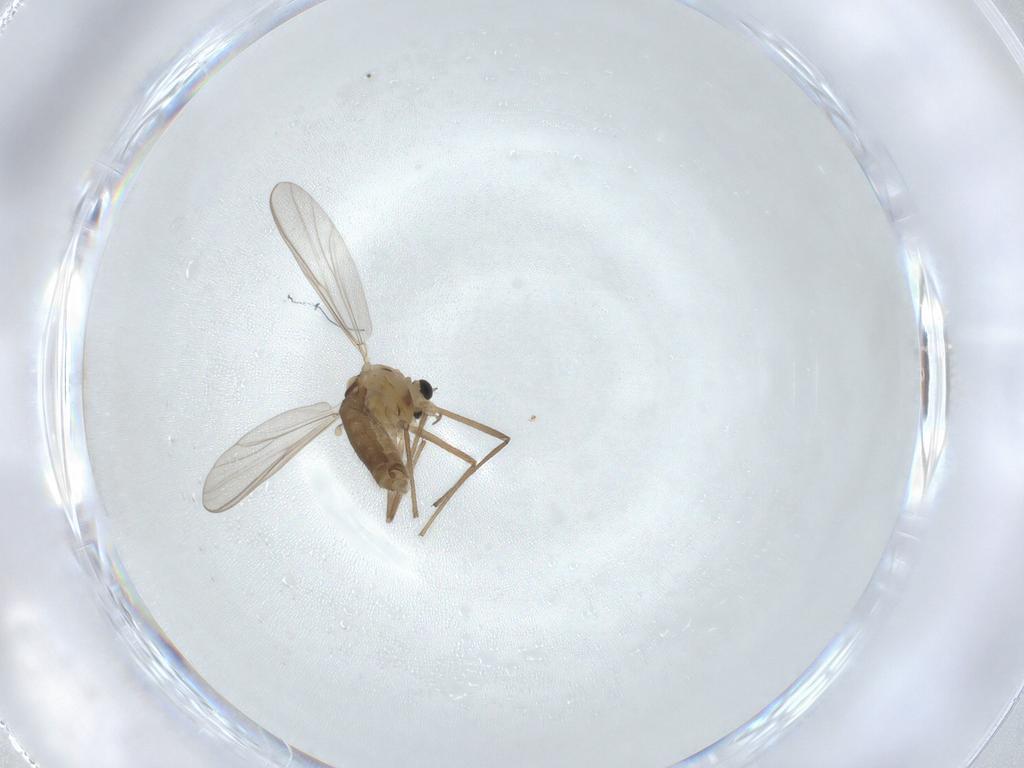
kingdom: Animalia
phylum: Arthropoda
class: Insecta
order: Diptera
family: Chironomidae
